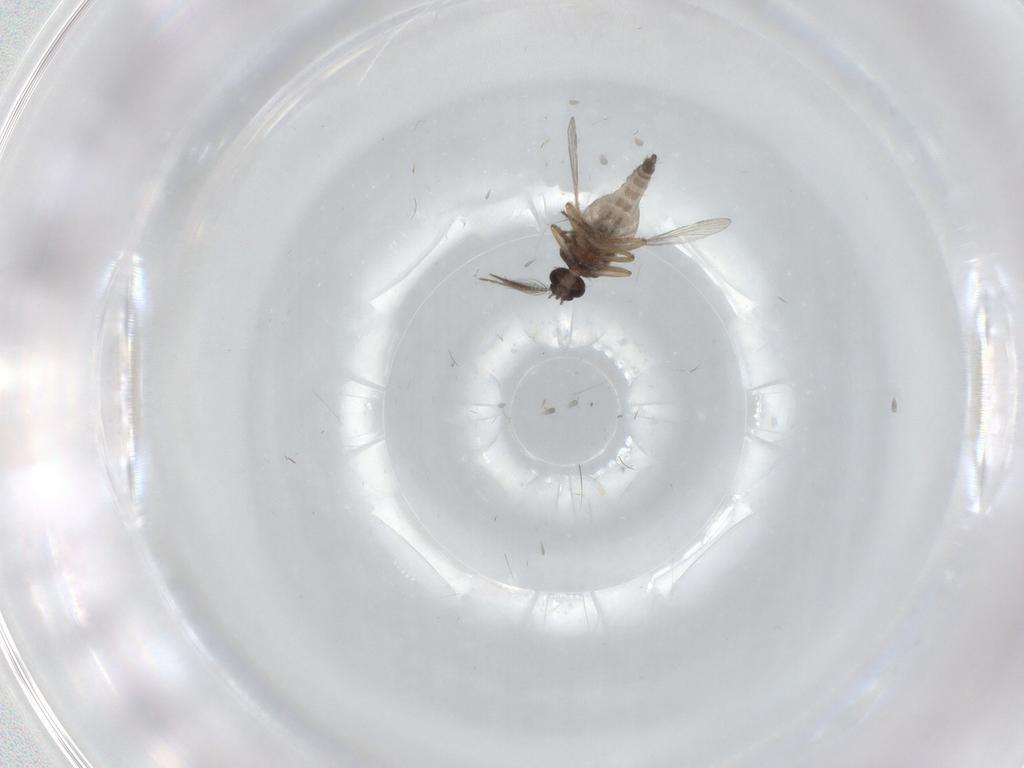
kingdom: Animalia
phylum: Arthropoda
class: Insecta
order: Diptera
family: Ceratopogonidae
